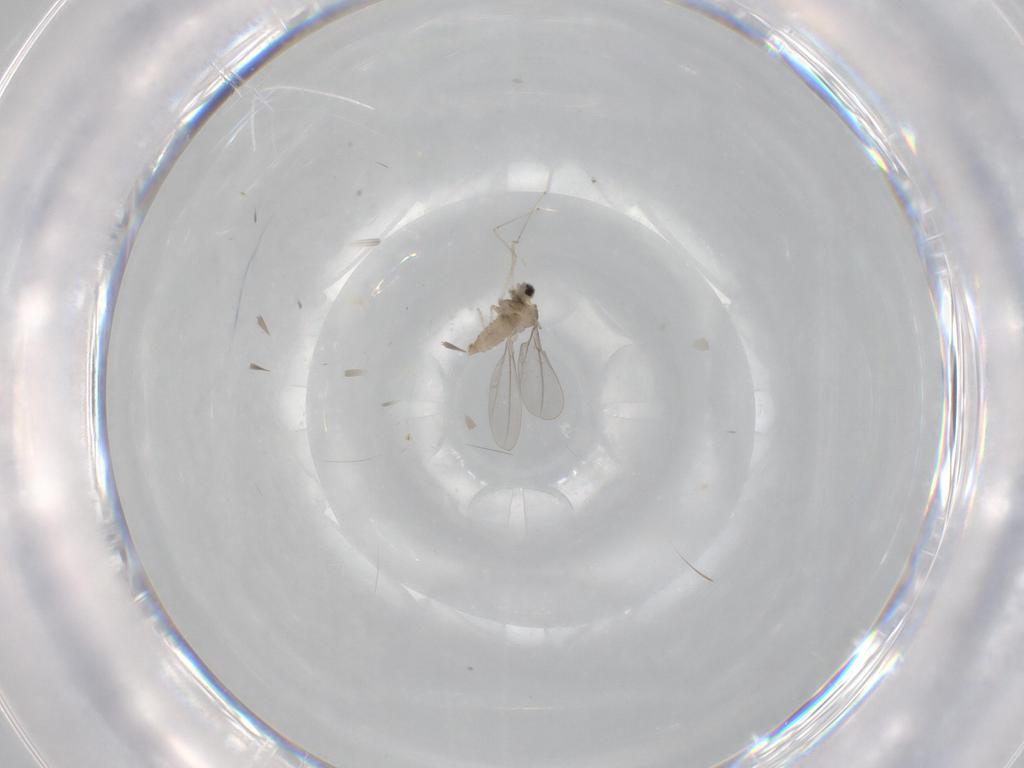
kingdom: Animalia
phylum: Arthropoda
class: Insecta
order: Diptera
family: Cecidomyiidae
